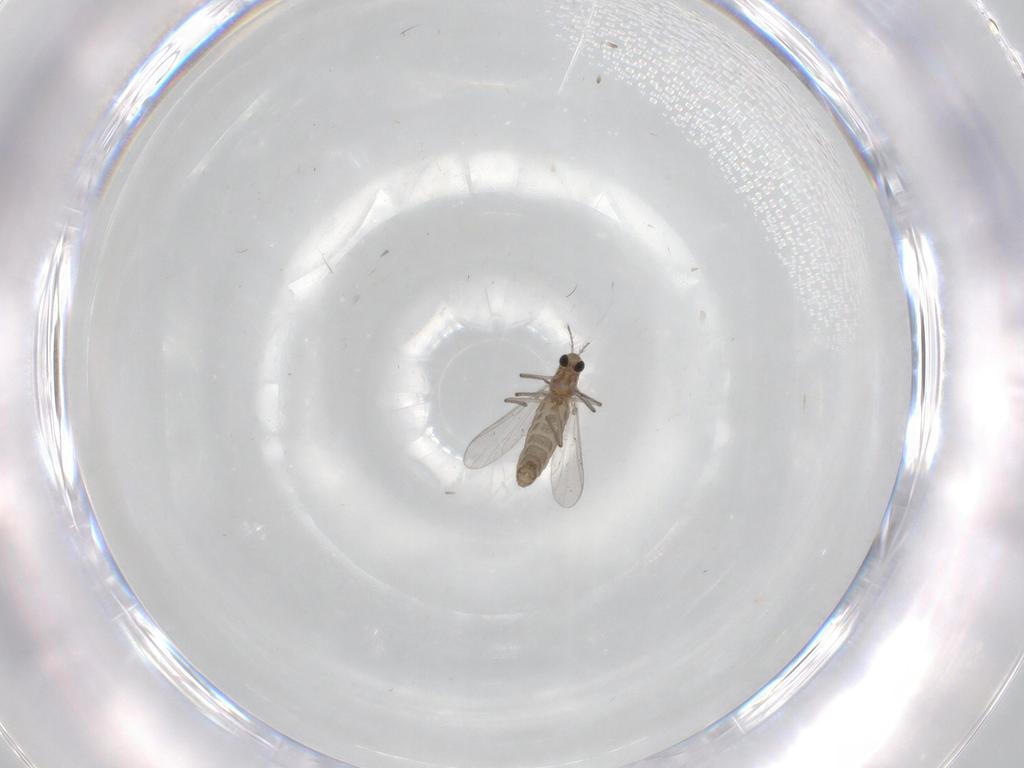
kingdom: Animalia
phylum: Arthropoda
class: Insecta
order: Diptera
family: Chironomidae
